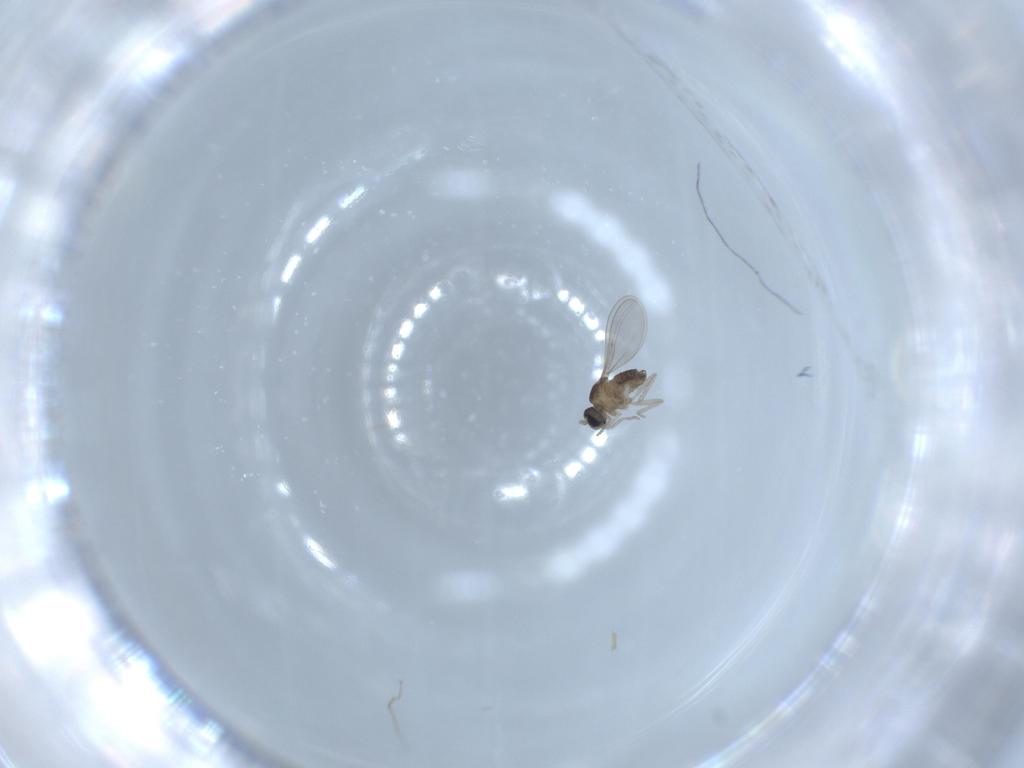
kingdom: Animalia
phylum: Arthropoda
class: Insecta
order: Diptera
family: Cecidomyiidae
